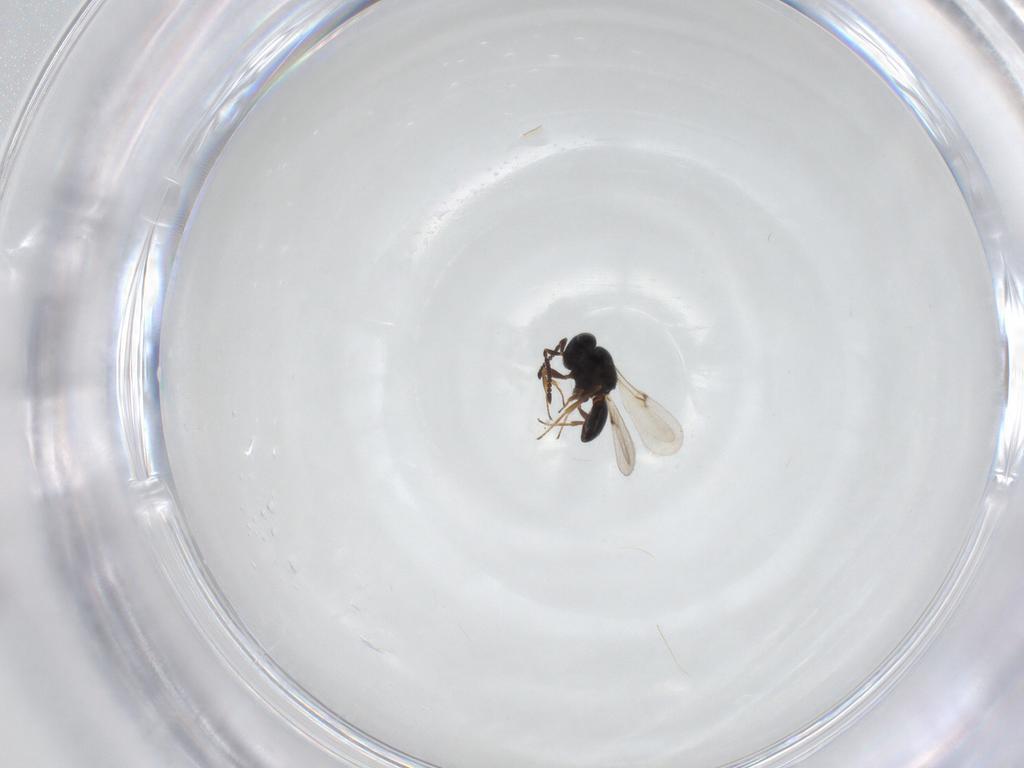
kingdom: Animalia
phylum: Arthropoda
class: Arachnida
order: Araneae
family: Pholcidae
